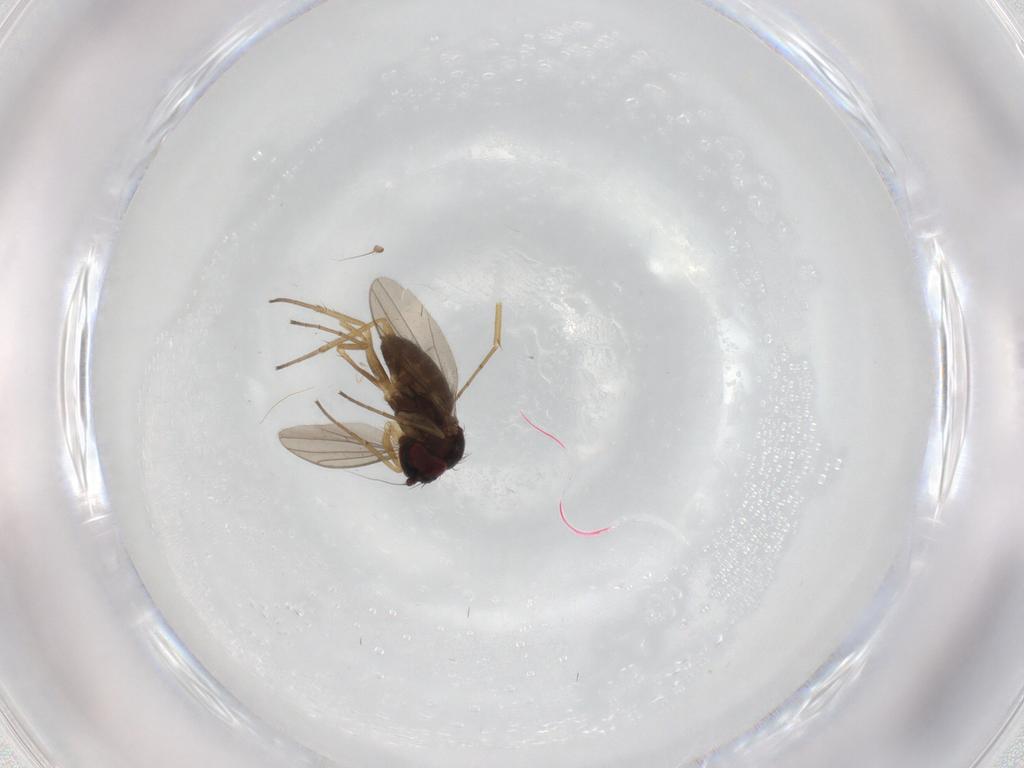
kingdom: Animalia
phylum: Arthropoda
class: Insecta
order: Diptera
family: Dolichopodidae
